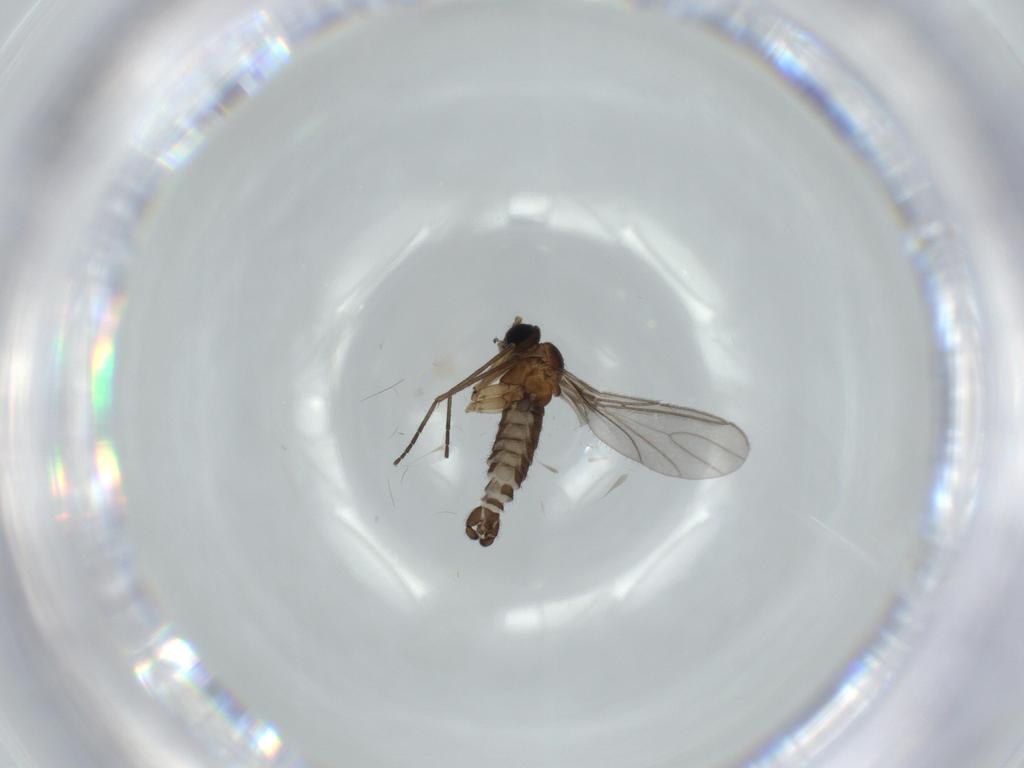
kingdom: Animalia
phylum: Arthropoda
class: Insecta
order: Diptera
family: Sciaridae
